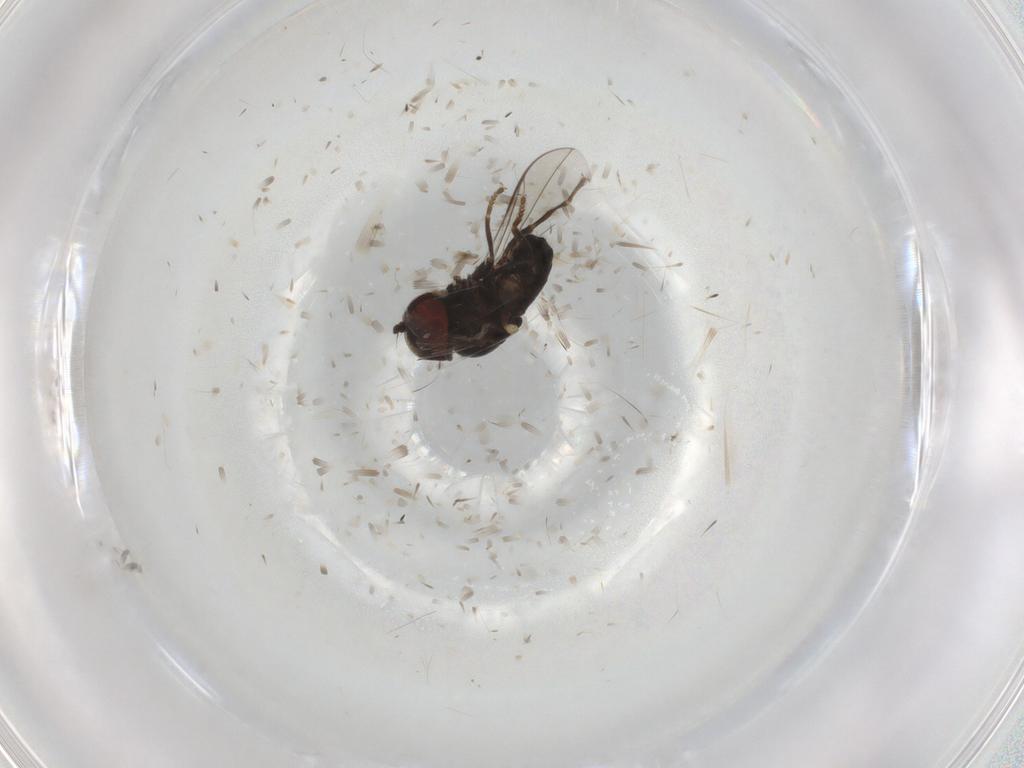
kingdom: Animalia
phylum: Arthropoda
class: Insecta
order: Diptera
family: Pipunculidae
